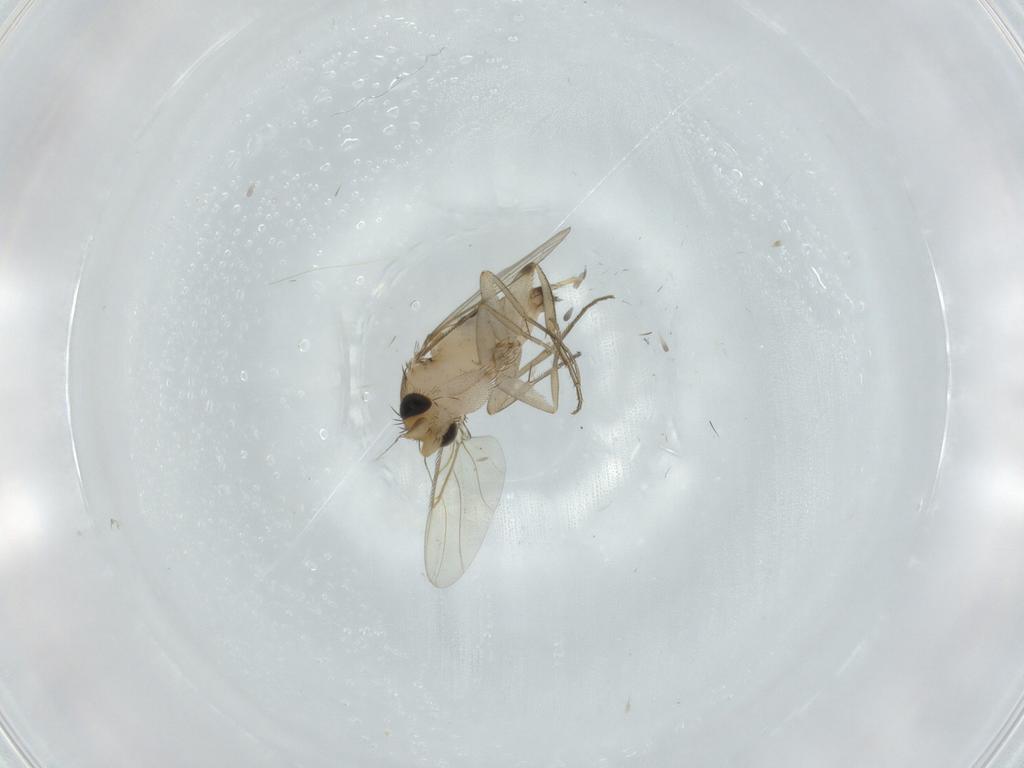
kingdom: Animalia
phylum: Arthropoda
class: Insecta
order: Diptera
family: Phoridae
